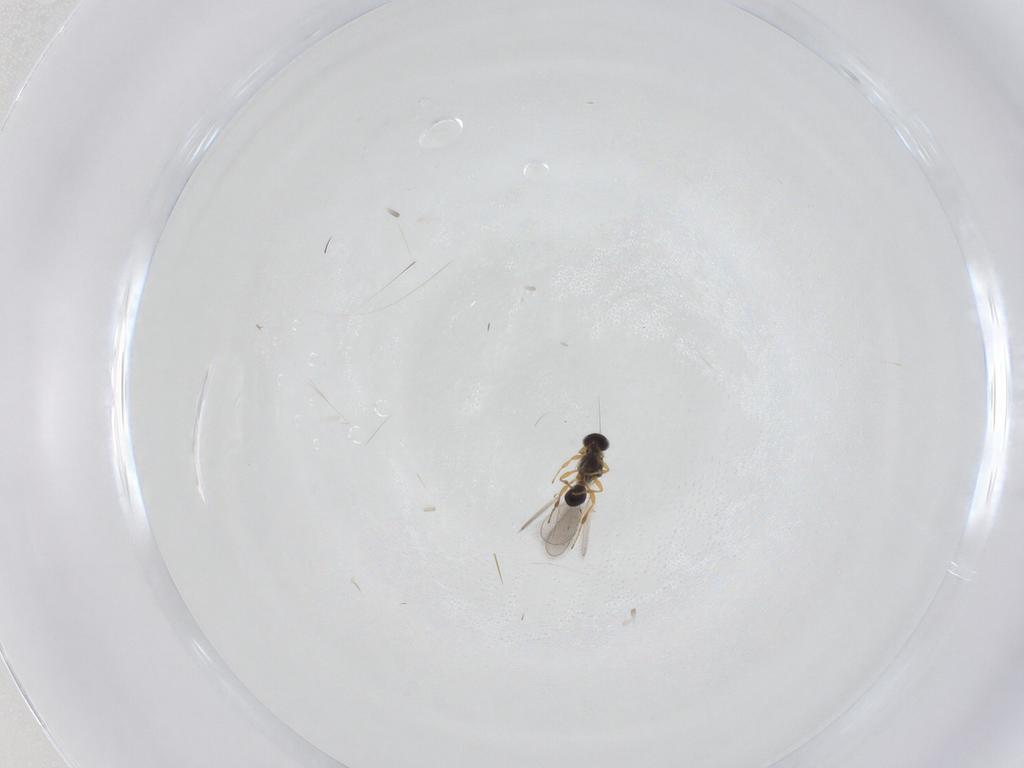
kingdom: Animalia
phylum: Arthropoda
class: Insecta
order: Hymenoptera
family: Platygastridae
